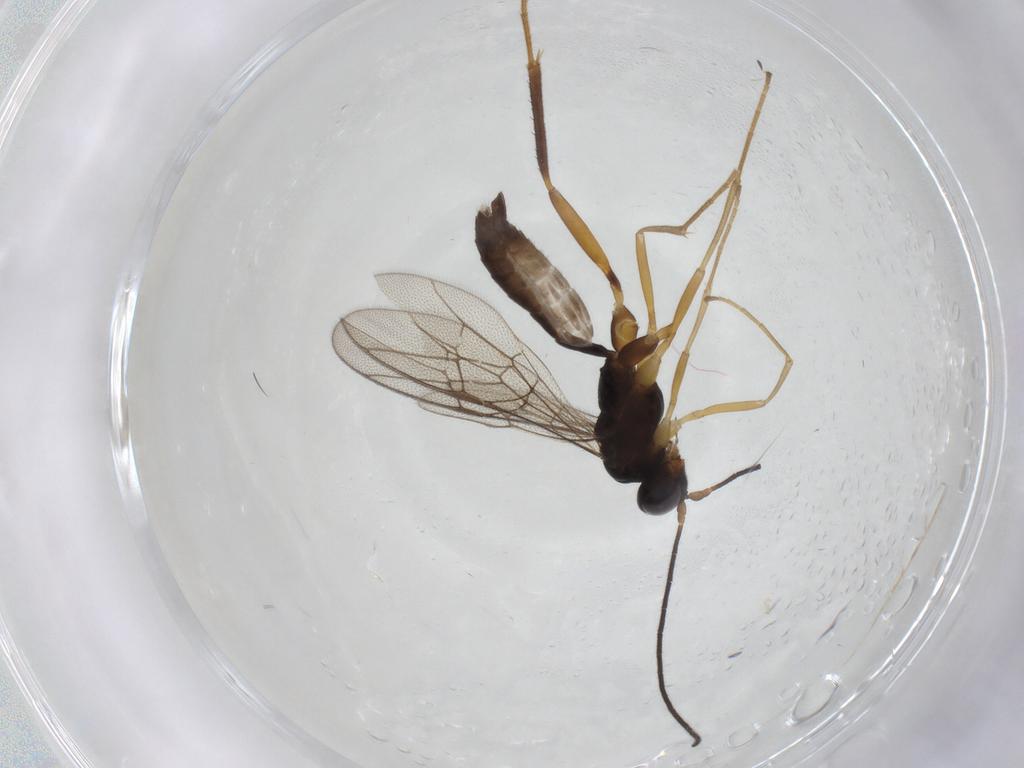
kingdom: Animalia
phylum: Arthropoda
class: Insecta
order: Hymenoptera
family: Ichneumonidae
